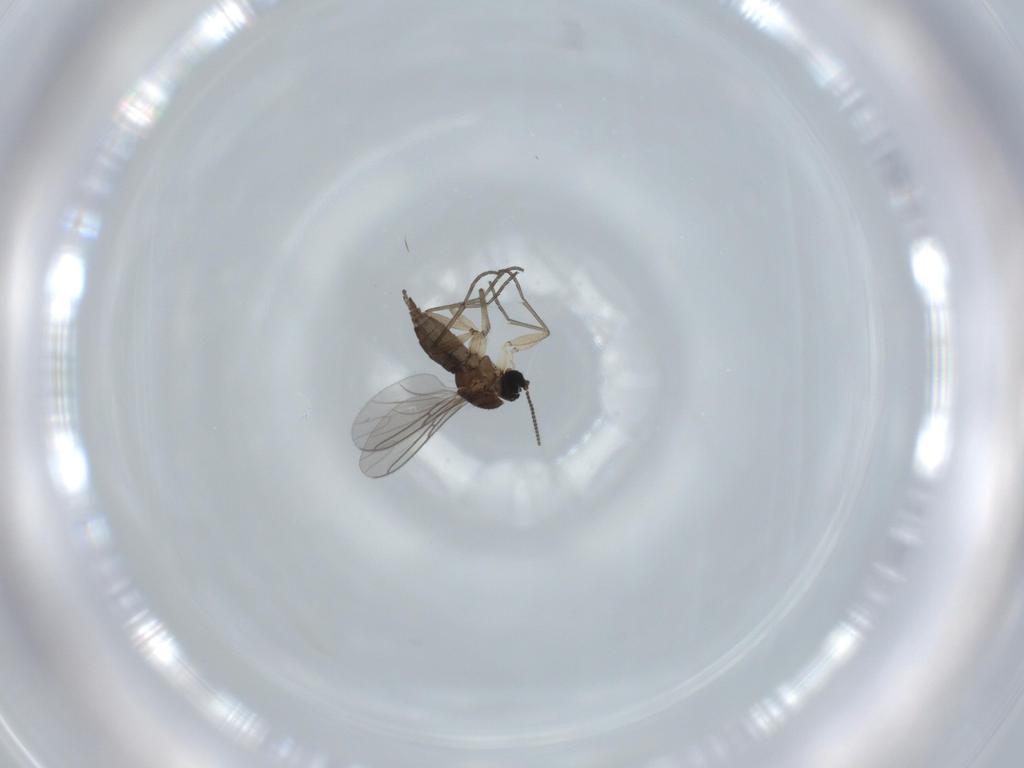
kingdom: Animalia
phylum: Arthropoda
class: Insecta
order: Diptera
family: Sciaridae
